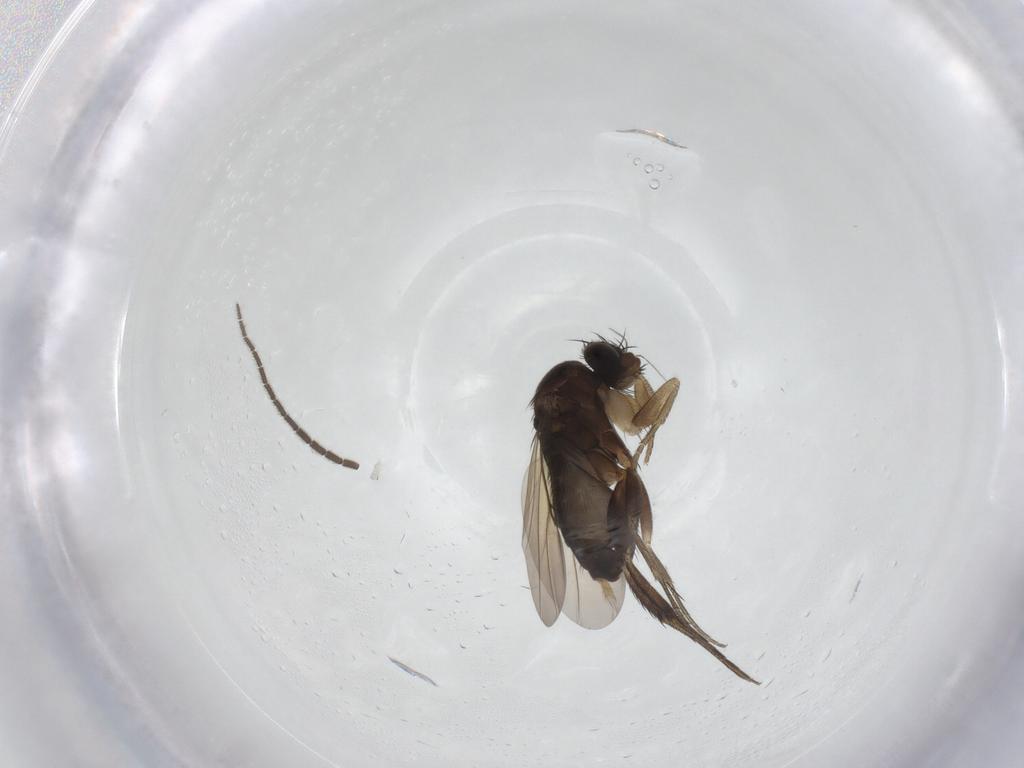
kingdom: Animalia
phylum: Arthropoda
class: Insecta
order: Diptera
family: Phoridae
